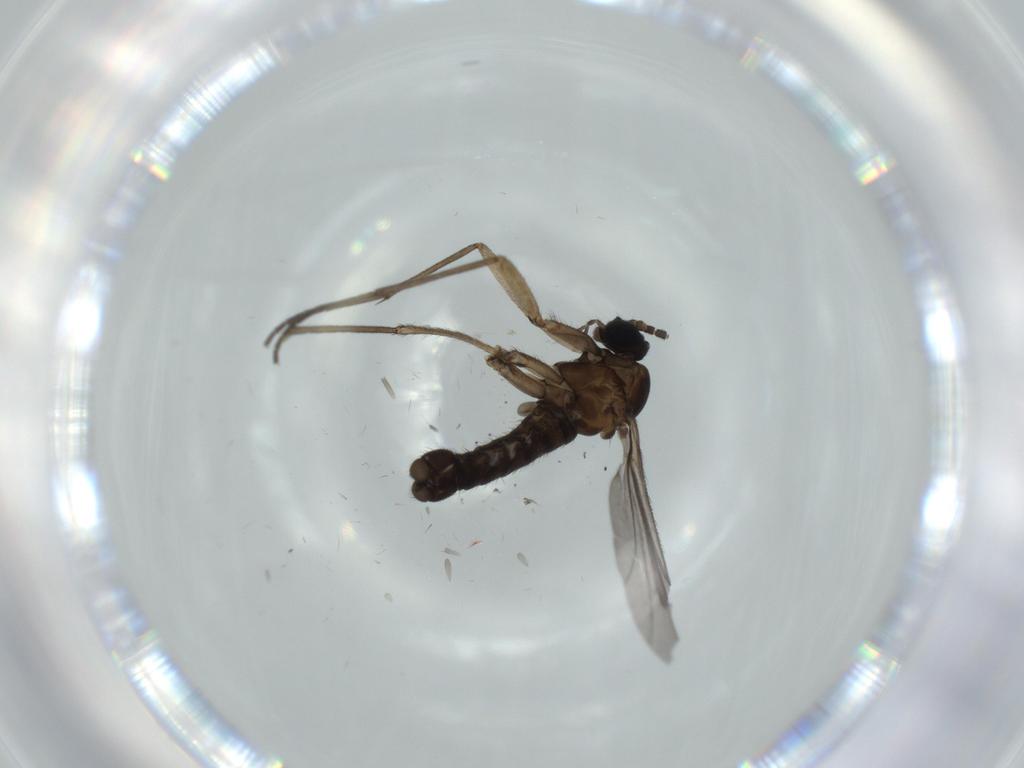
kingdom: Animalia
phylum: Arthropoda
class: Insecta
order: Diptera
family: Sciaridae
